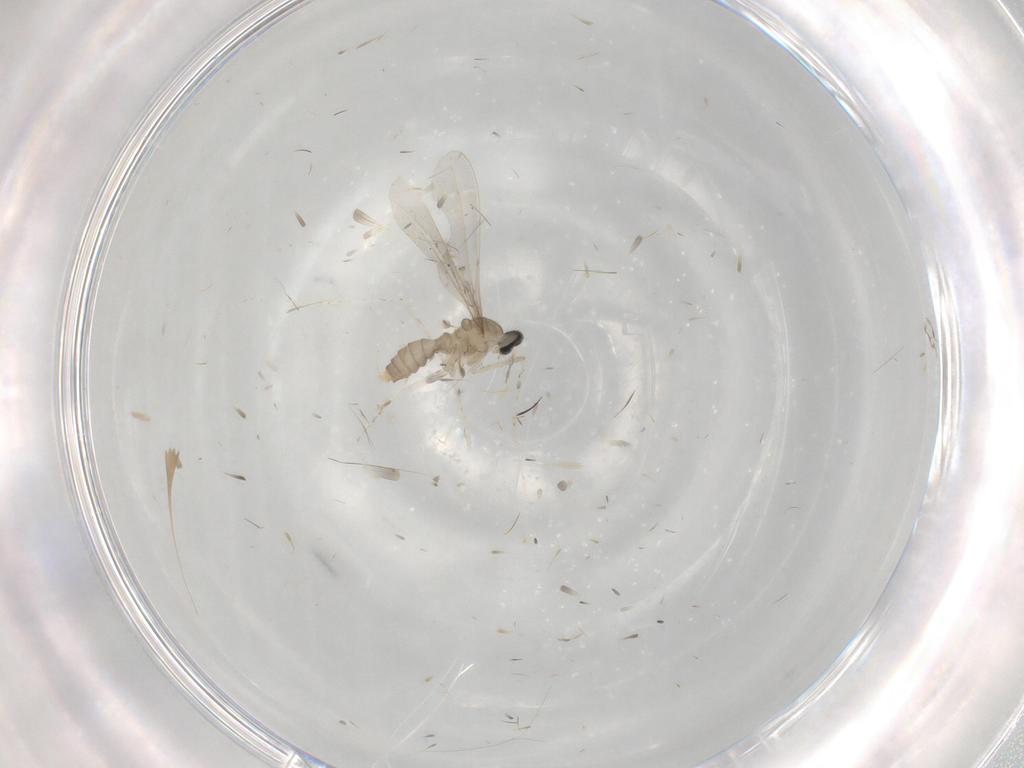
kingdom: Animalia
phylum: Arthropoda
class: Insecta
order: Diptera
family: Cecidomyiidae
